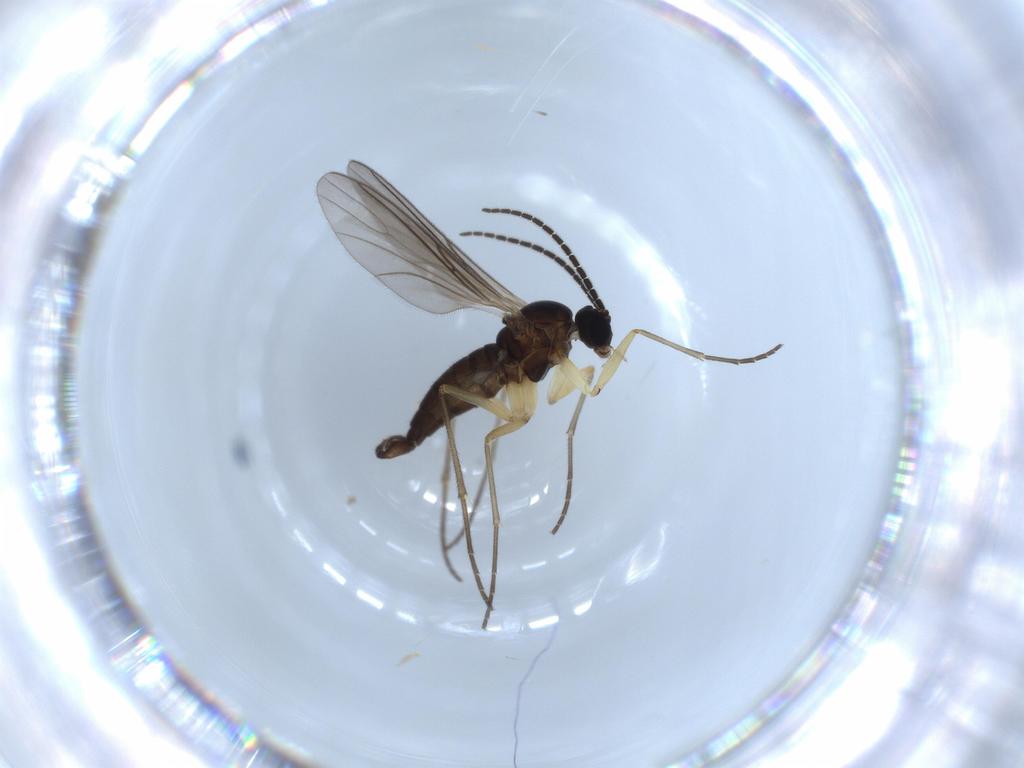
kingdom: Animalia
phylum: Arthropoda
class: Insecta
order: Diptera
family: Sciaridae
